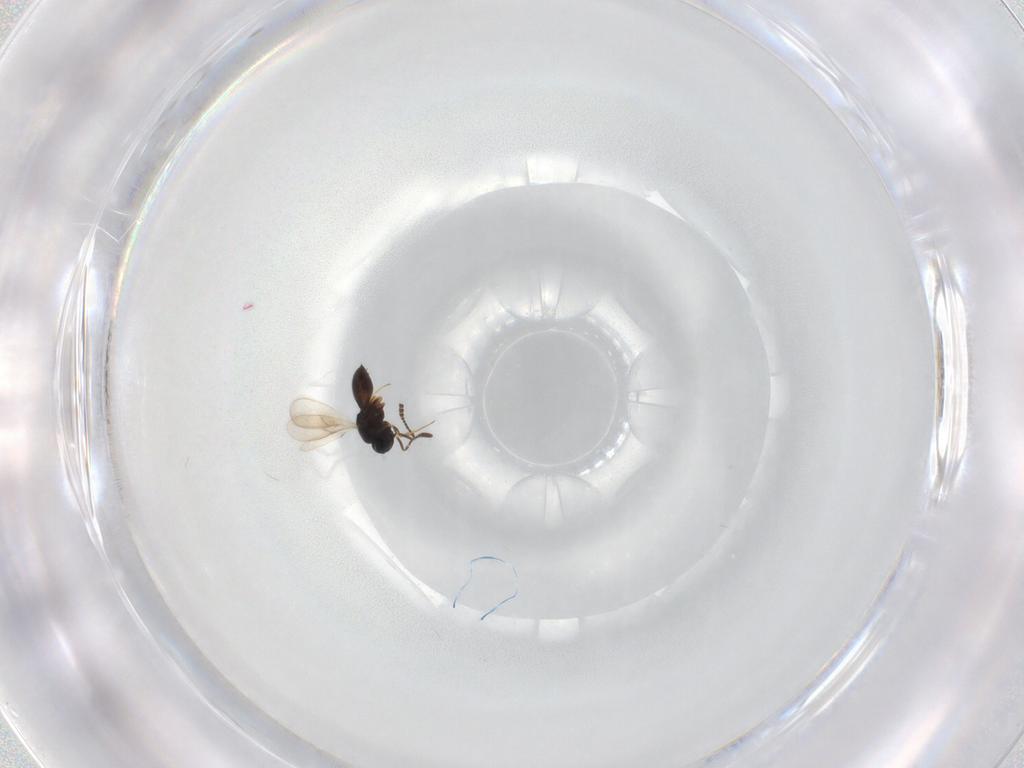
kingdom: Animalia
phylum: Arthropoda
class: Insecta
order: Hymenoptera
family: Scelionidae
